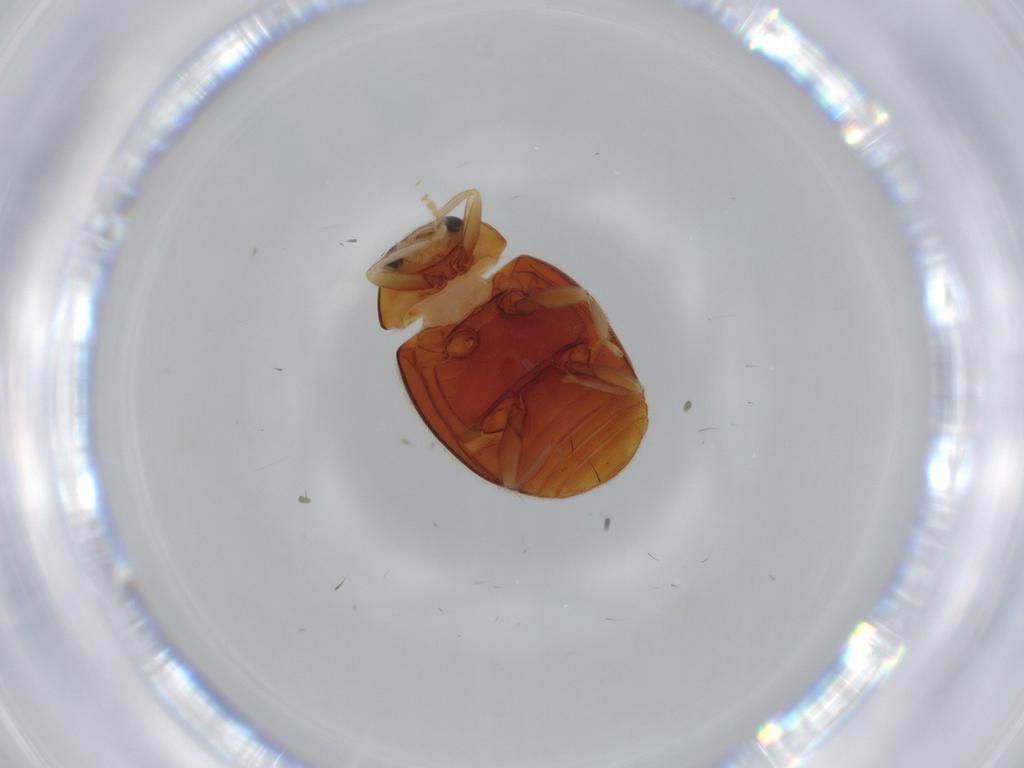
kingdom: Animalia
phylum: Arthropoda
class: Insecta
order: Coleoptera
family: Coccinellidae
